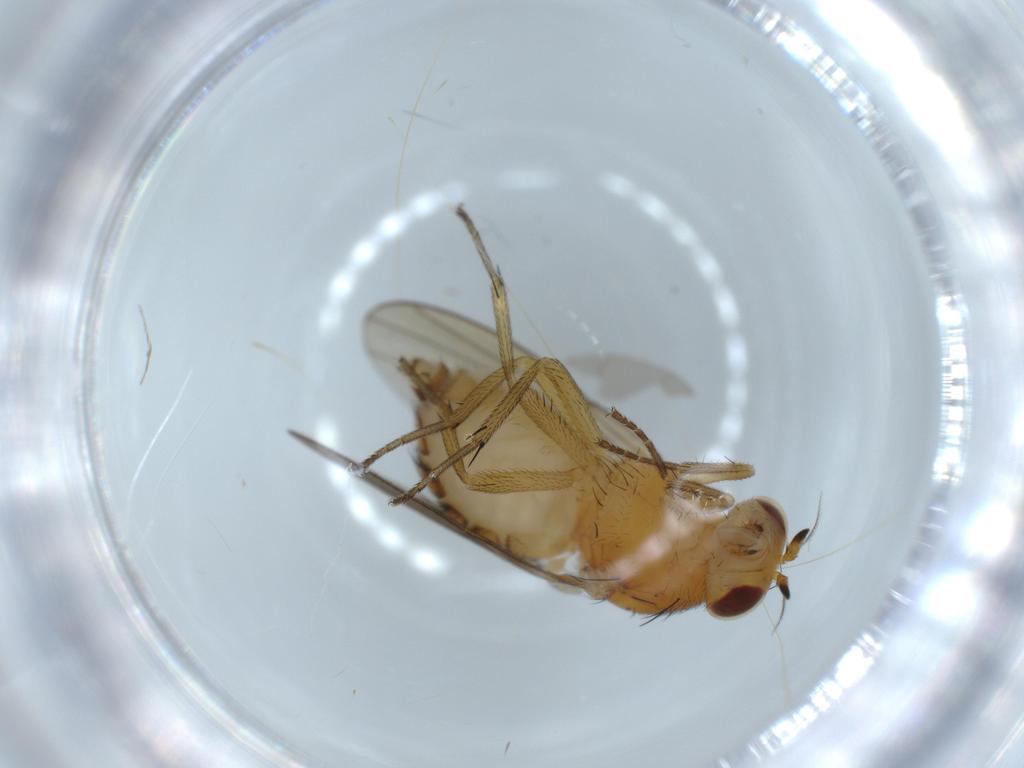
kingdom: Animalia
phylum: Arthropoda
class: Insecta
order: Diptera
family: Lauxaniidae
